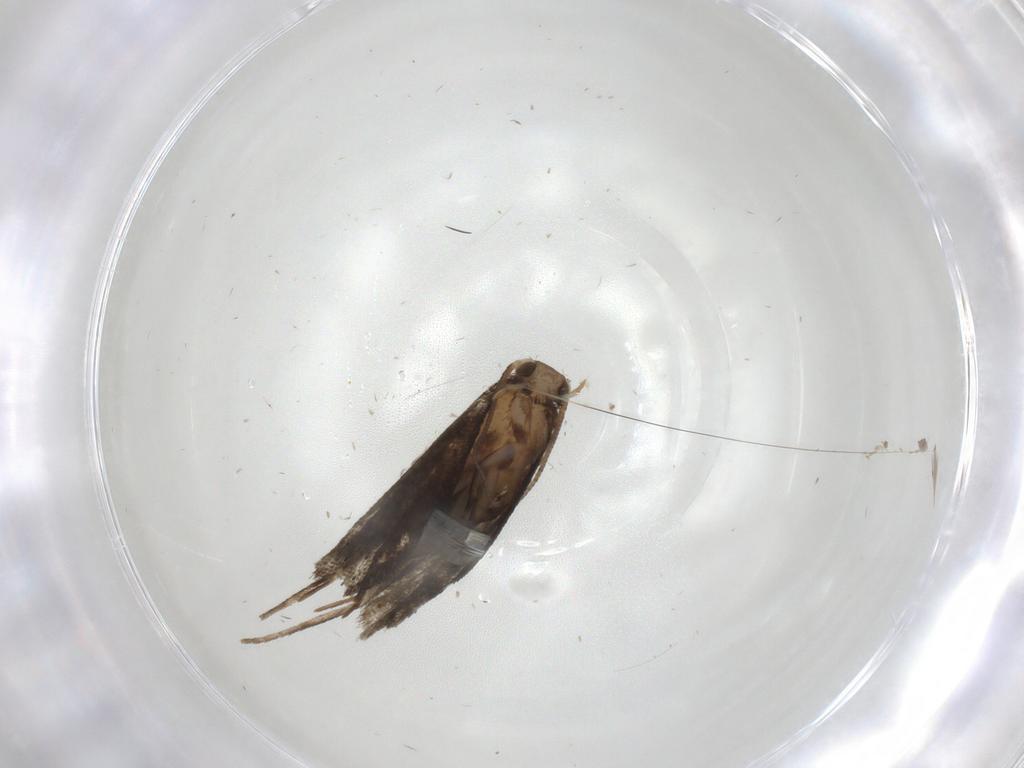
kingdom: Animalia
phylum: Arthropoda
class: Insecta
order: Lepidoptera
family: Tineidae
